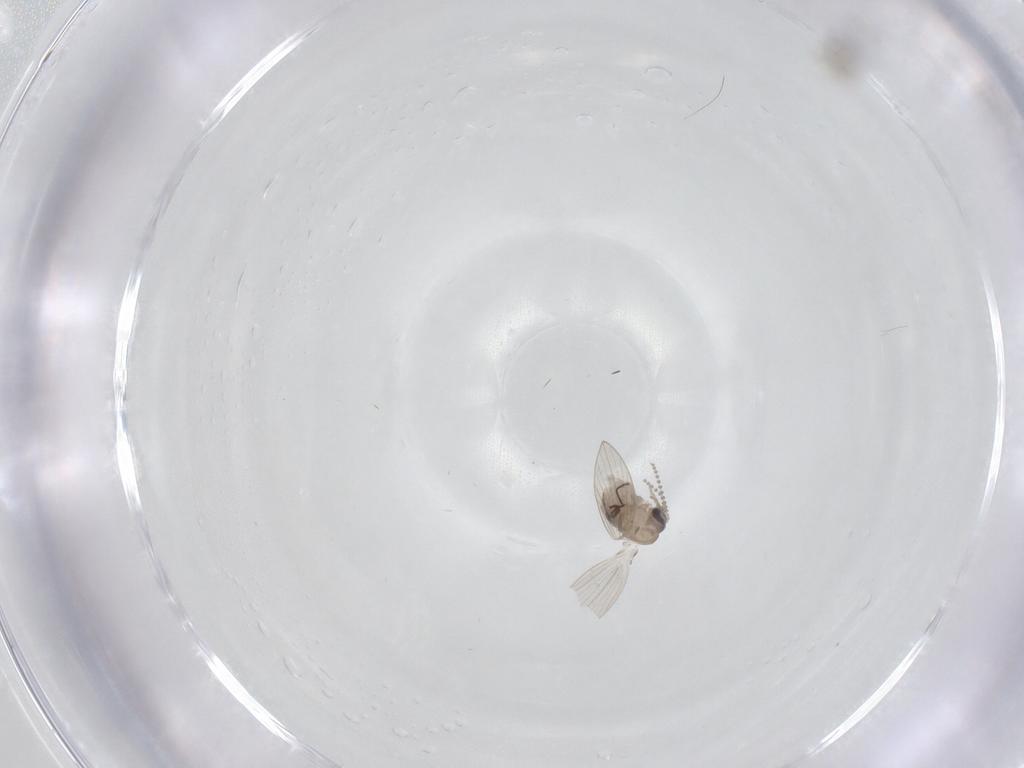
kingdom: Animalia
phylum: Arthropoda
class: Insecta
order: Diptera
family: Psychodidae
